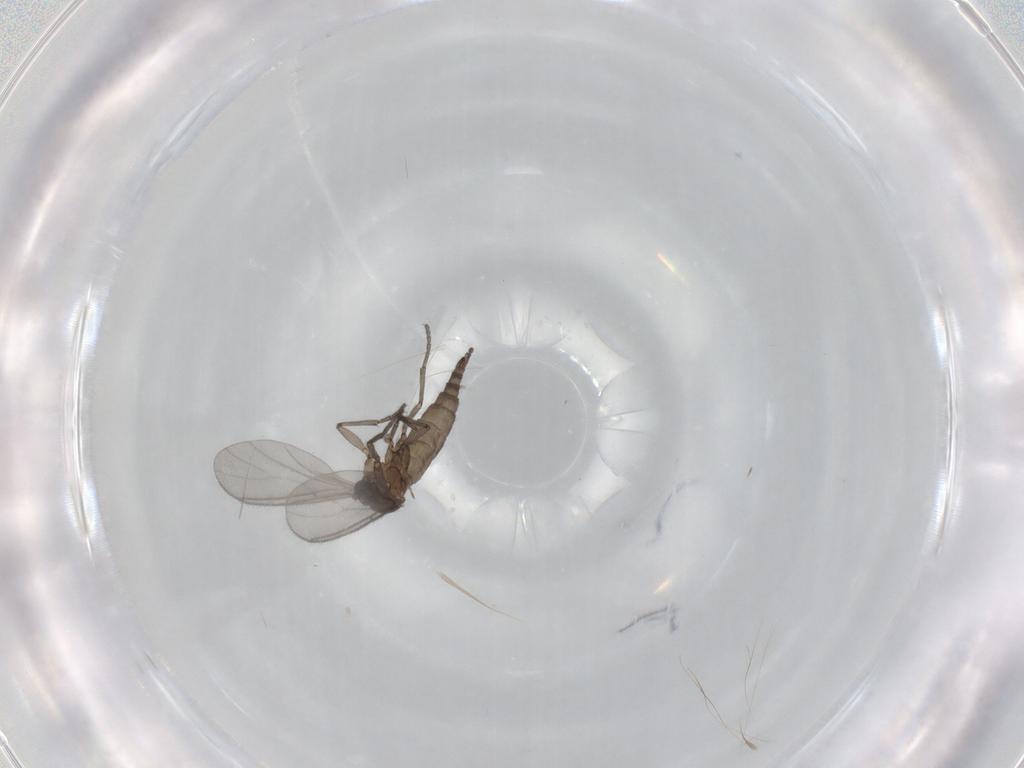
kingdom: Animalia
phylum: Arthropoda
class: Insecta
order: Diptera
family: Sciaridae
